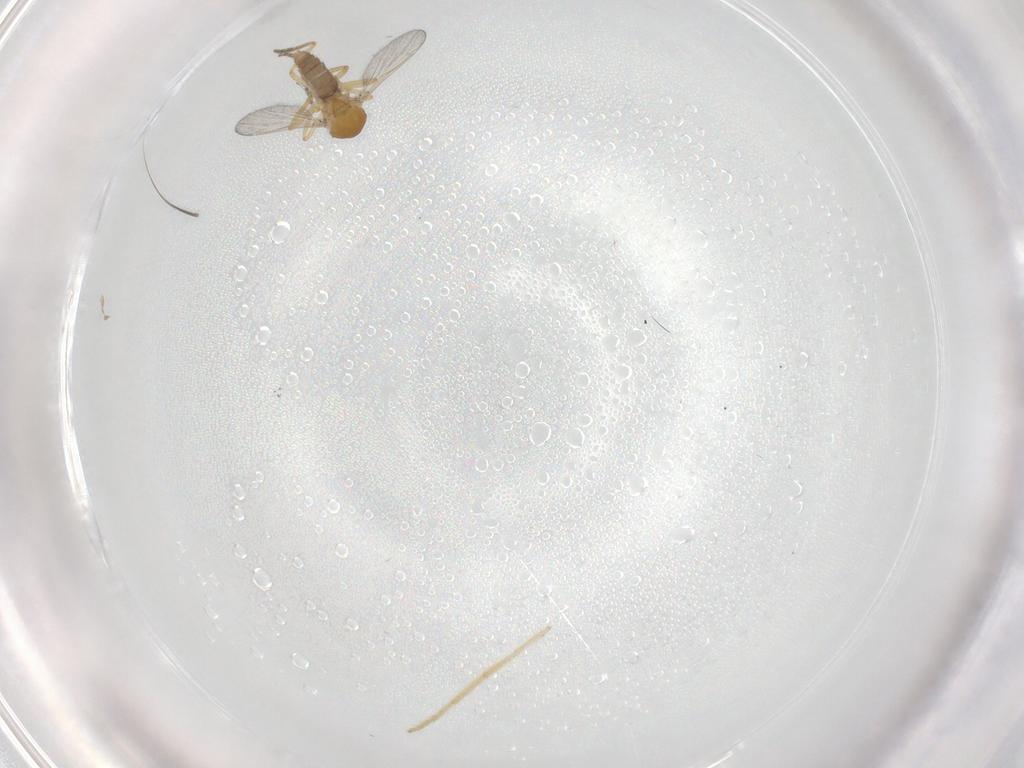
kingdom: Animalia
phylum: Arthropoda
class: Insecta
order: Diptera
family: Ceratopogonidae
